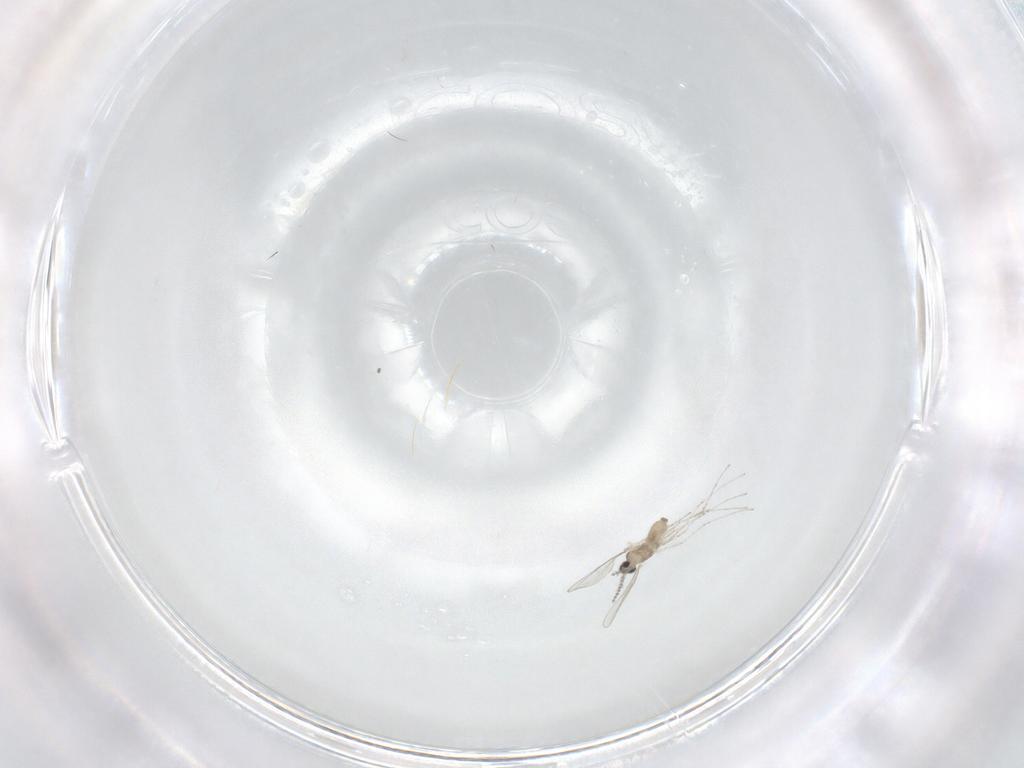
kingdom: Animalia
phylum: Arthropoda
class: Insecta
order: Diptera
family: Cecidomyiidae
